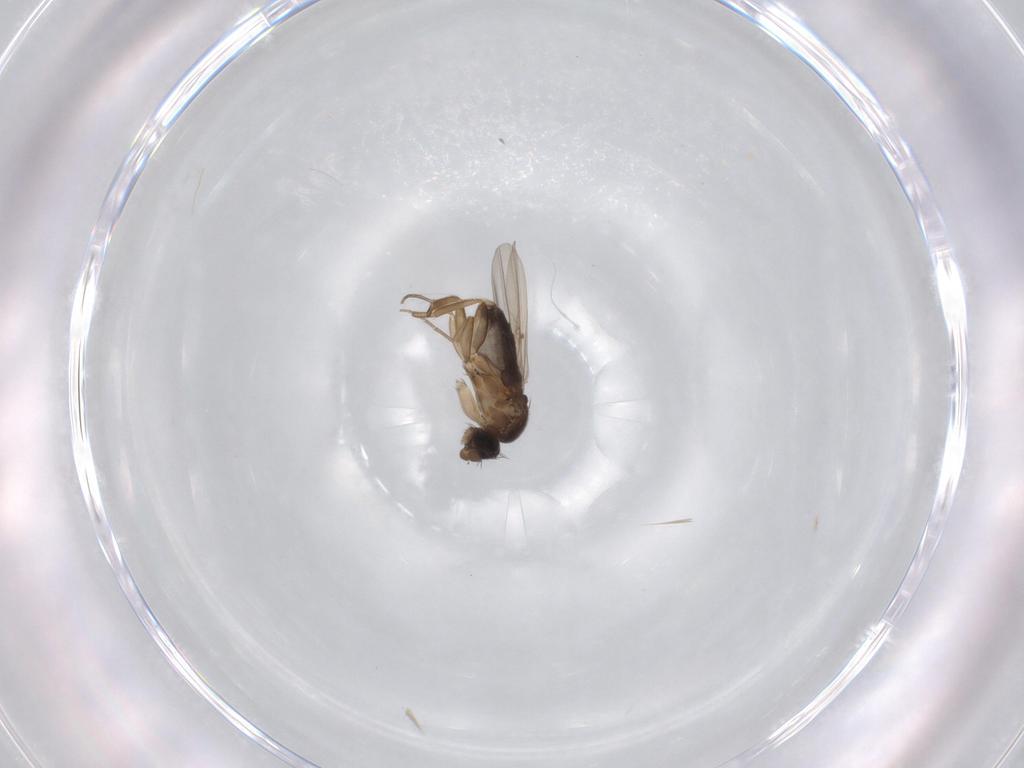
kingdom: Animalia
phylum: Arthropoda
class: Insecta
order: Diptera
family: Phoridae
